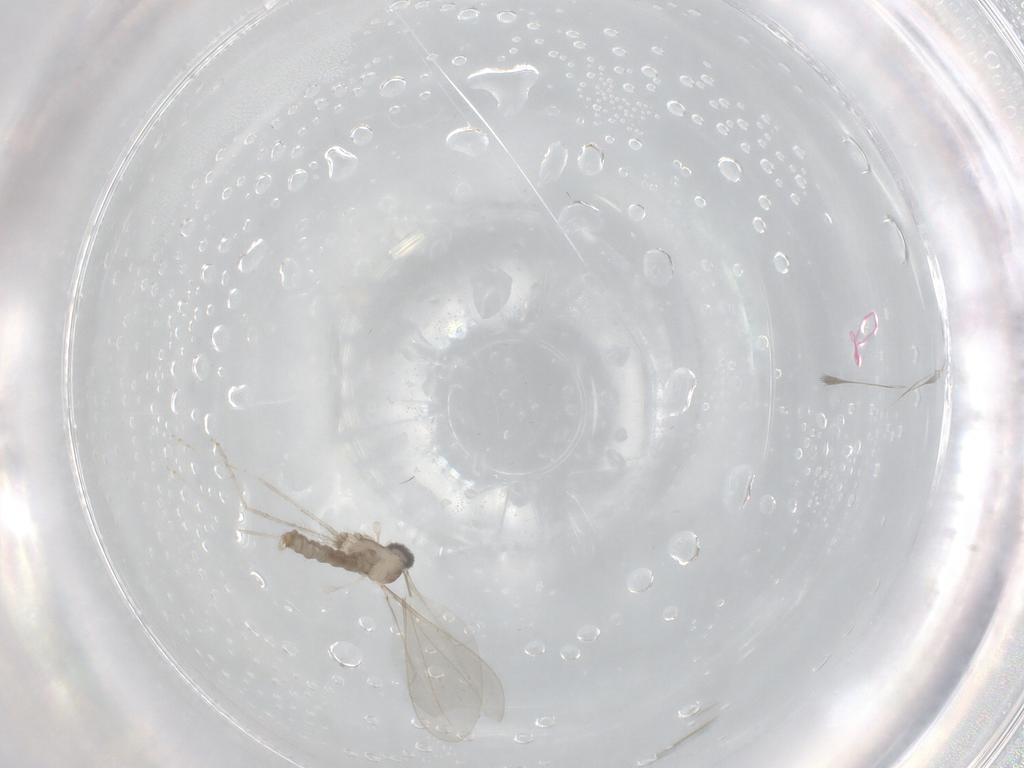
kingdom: Animalia
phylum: Arthropoda
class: Insecta
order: Diptera
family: Cecidomyiidae
